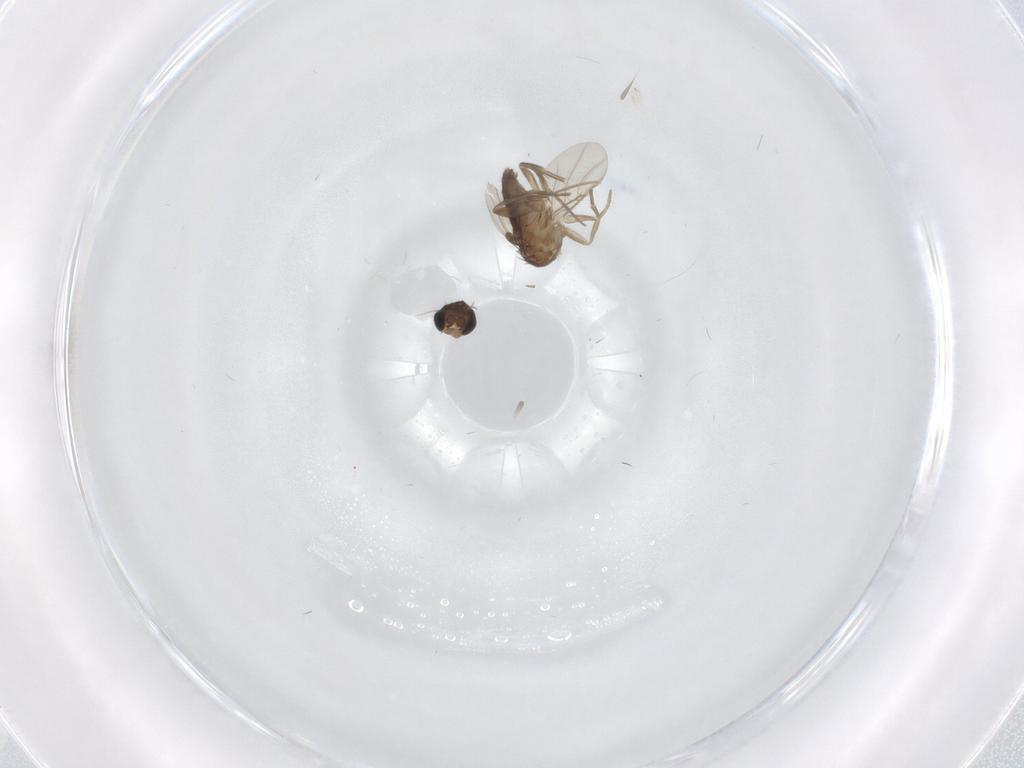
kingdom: Animalia
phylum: Arthropoda
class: Insecta
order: Diptera
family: Phoridae
